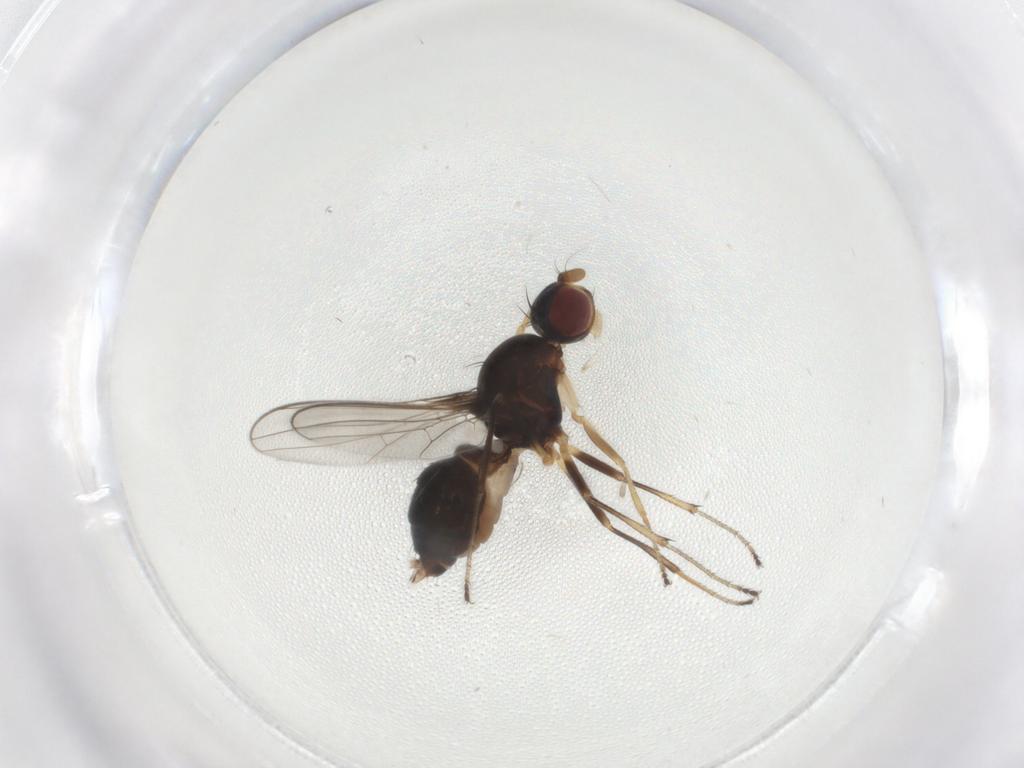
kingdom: Animalia
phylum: Arthropoda
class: Insecta
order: Diptera
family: Sepsidae
